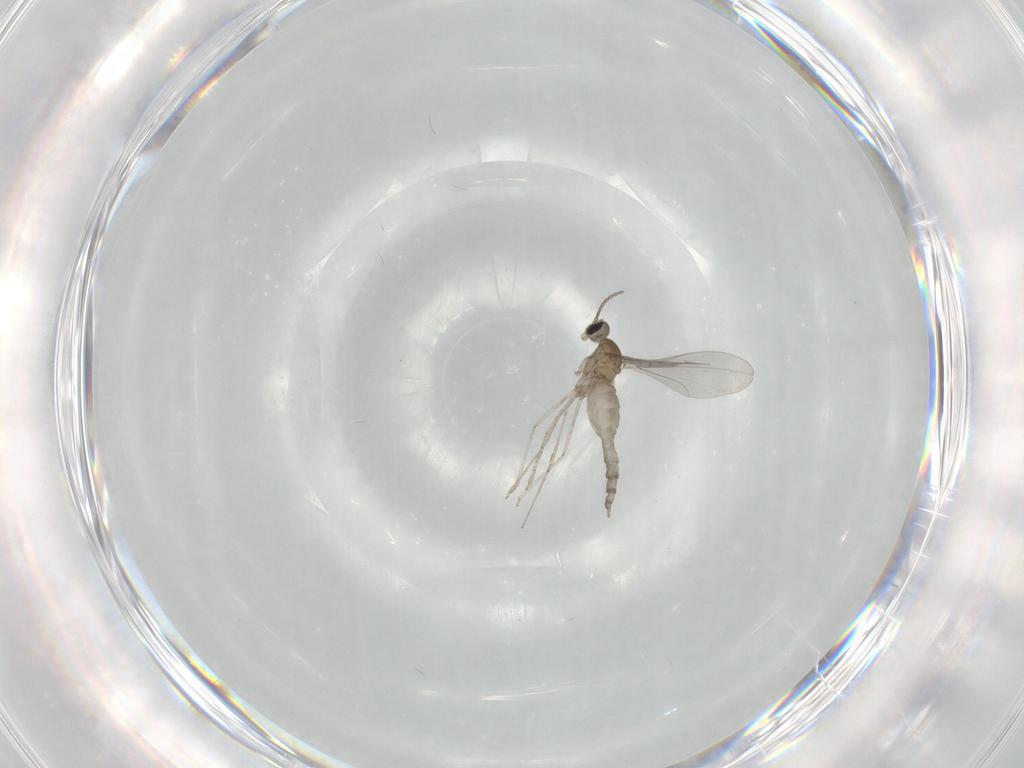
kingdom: Animalia
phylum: Arthropoda
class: Insecta
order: Diptera
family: Cecidomyiidae
